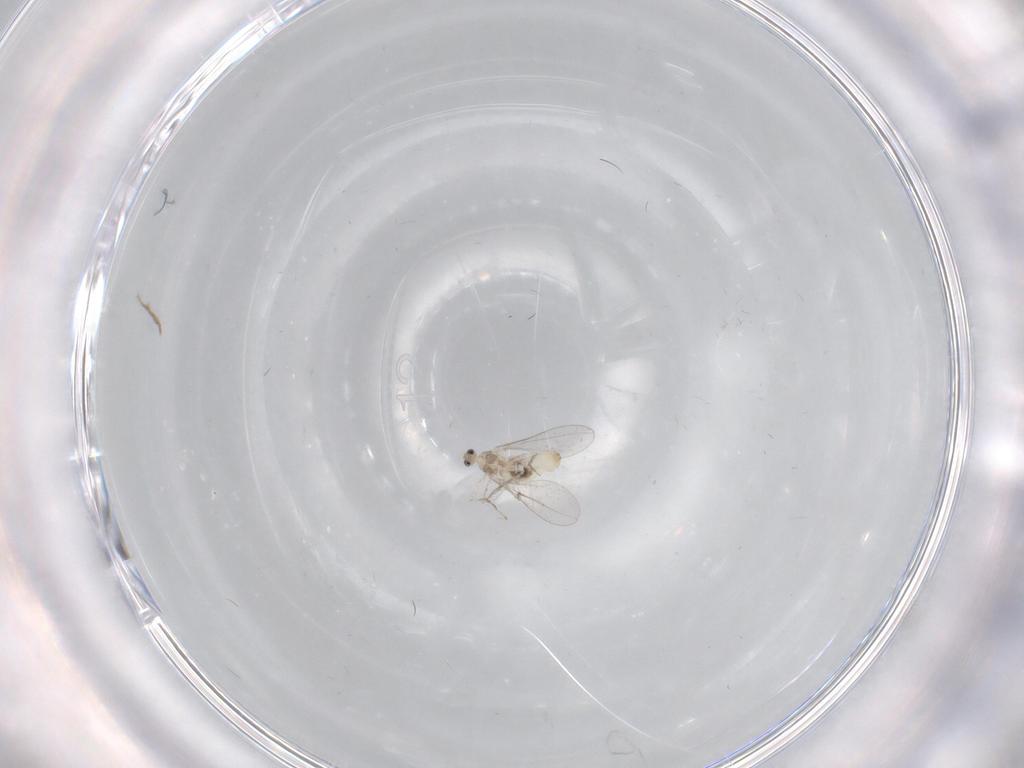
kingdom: Animalia
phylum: Arthropoda
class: Insecta
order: Diptera
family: Cecidomyiidae
